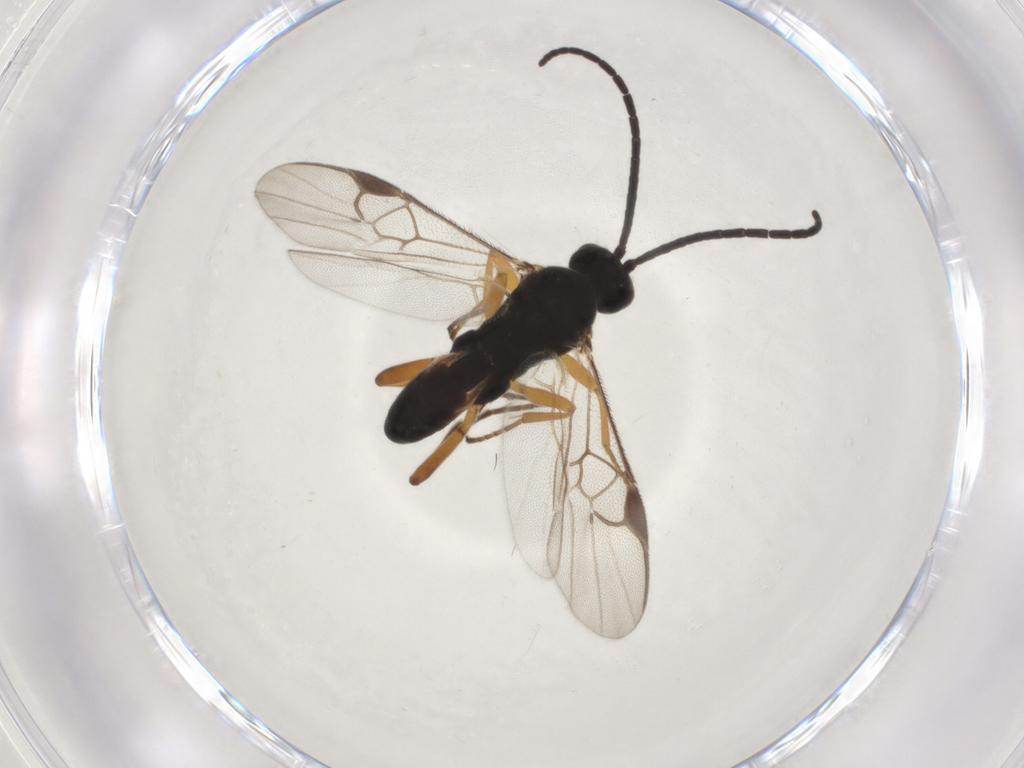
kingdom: Animalia
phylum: Arthropoda
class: Insecta
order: Hymenoptera
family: Braconidae
